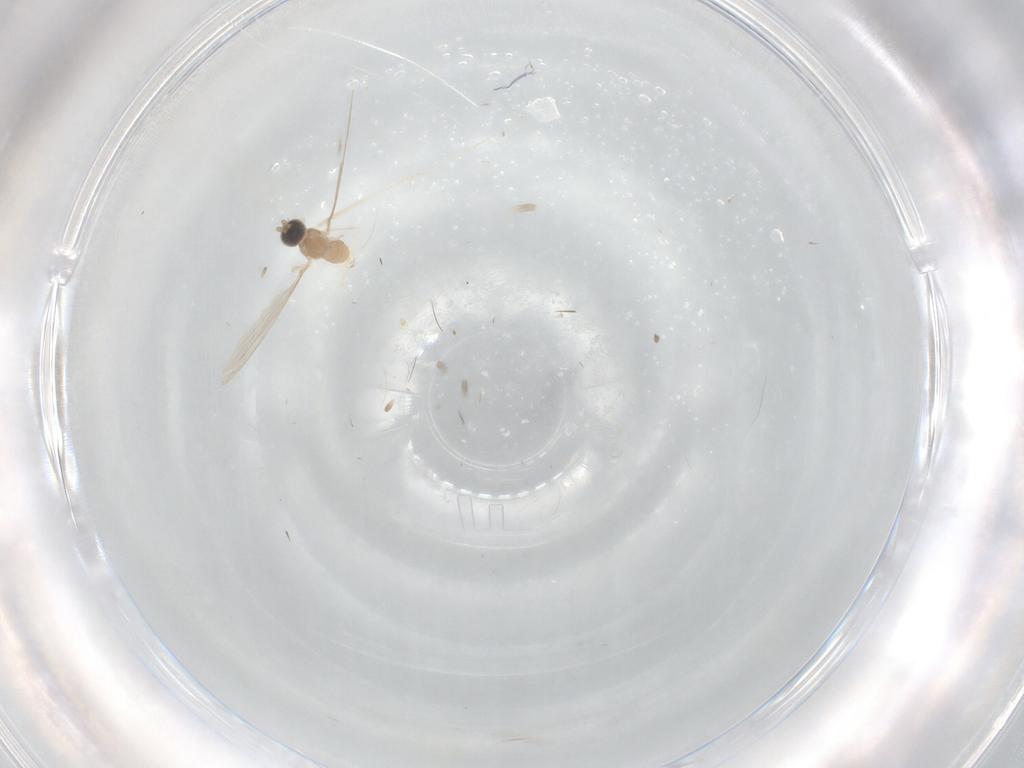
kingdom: Animalia
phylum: Arthropoda
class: Insecta
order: Diptera
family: Cecidomyiidae
